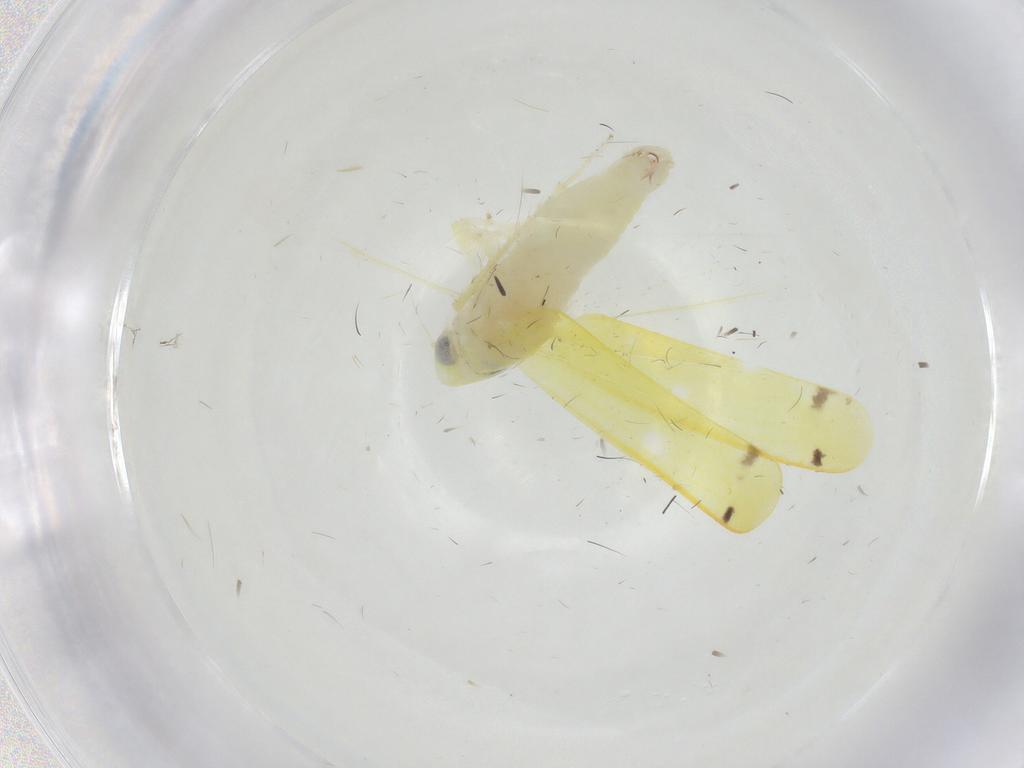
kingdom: Animalia
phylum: Arthropoda
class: Insecta
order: Hemiptera
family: Cicadellidae
